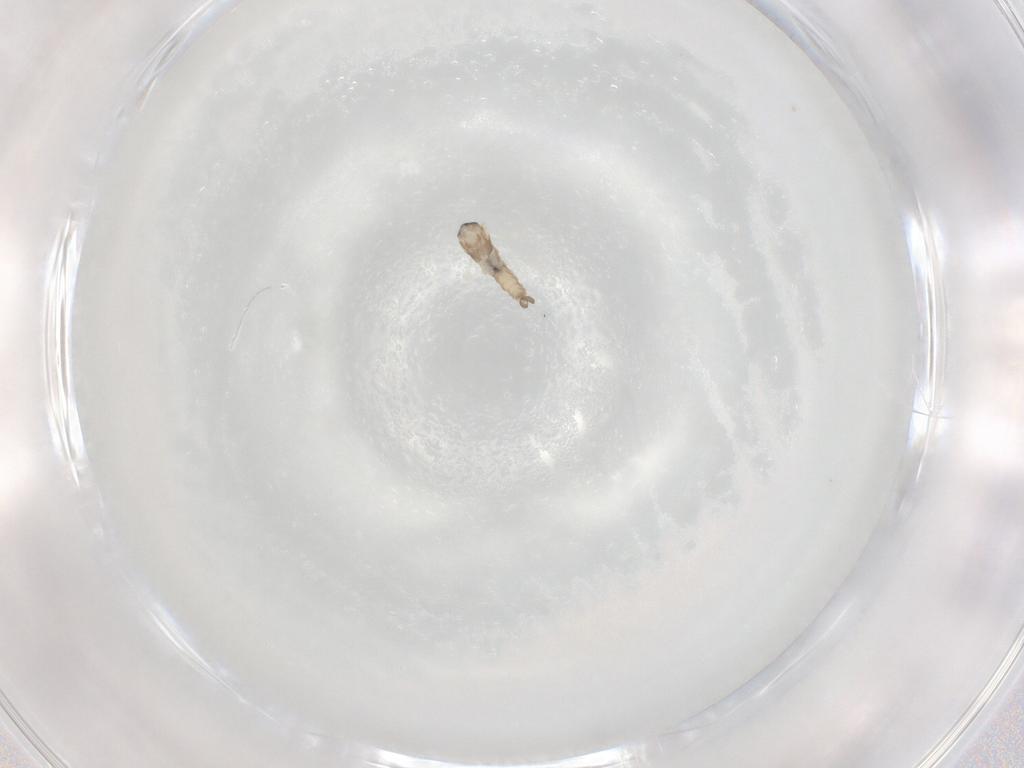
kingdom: Animalia
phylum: Arthropoda
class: Insecta
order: Diptera
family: Cecidomyiidae
